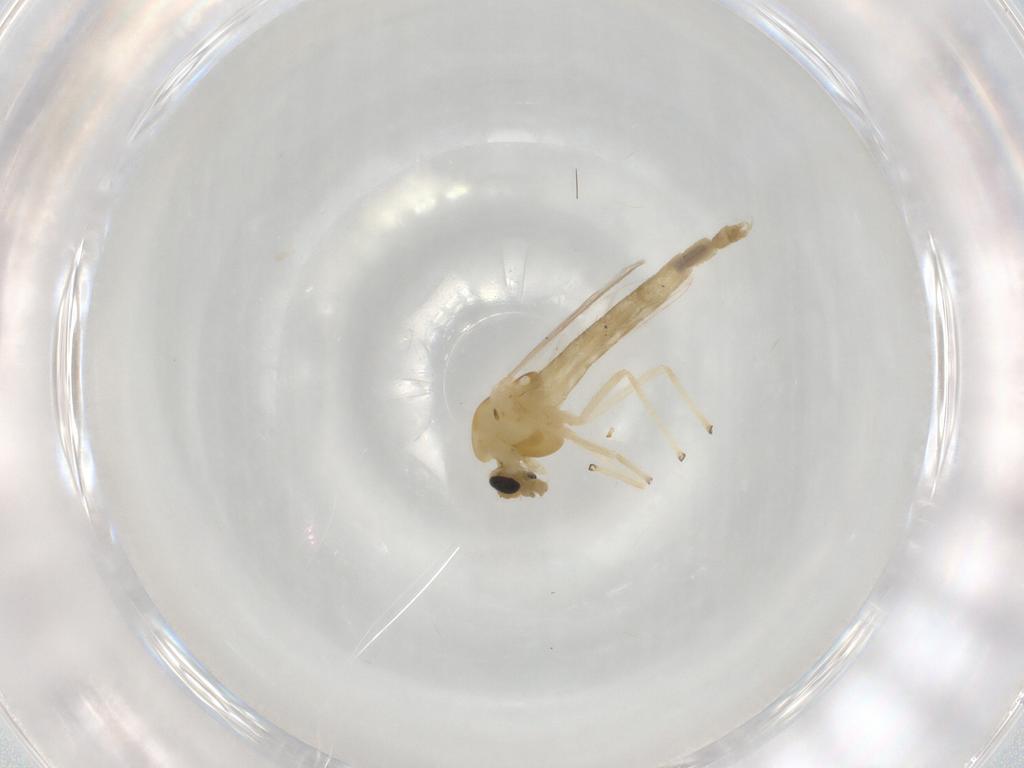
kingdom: Animalia
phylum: Arthropoda
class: Insecta
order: Diptera
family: Chironomidae
